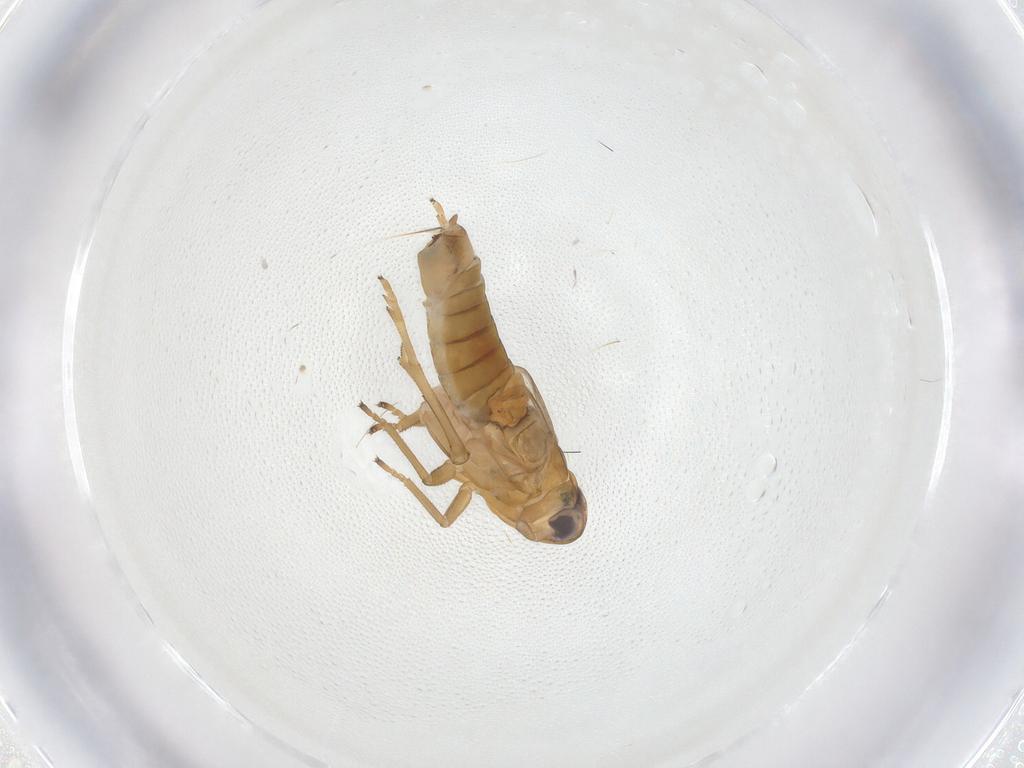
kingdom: Animalia
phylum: Arthropoda
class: Insecta
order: Hemiptera
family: Delphacidae
